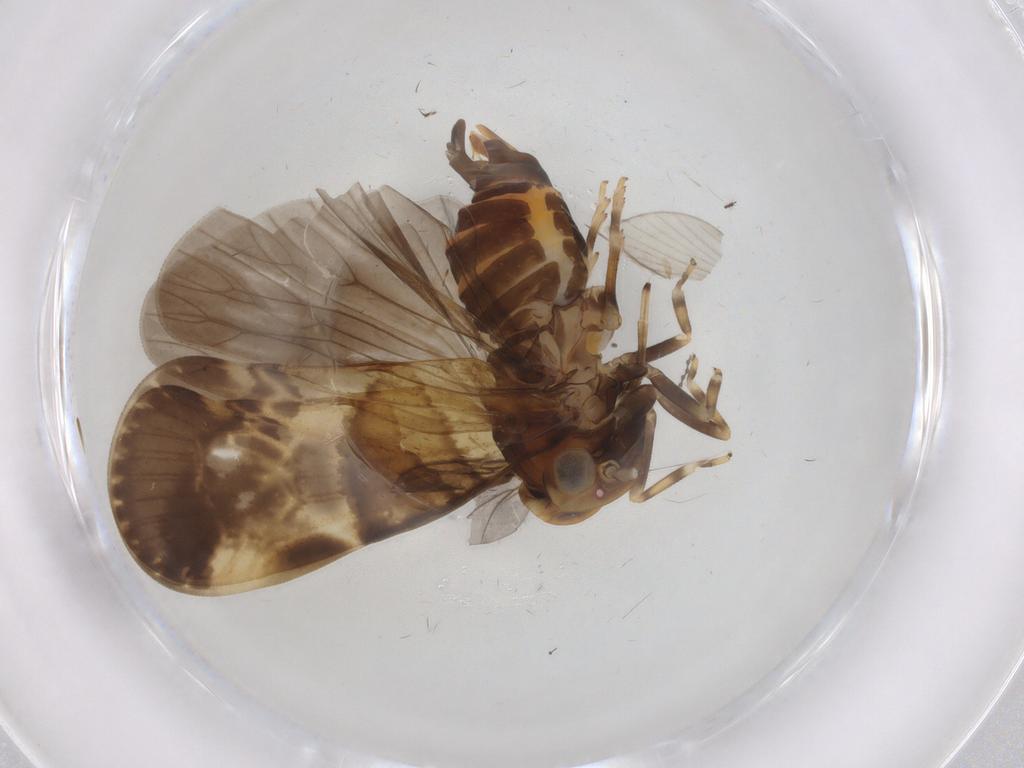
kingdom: Animalia
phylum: Arthropoda
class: Insecta
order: Hemiptera
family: Cixiidae
